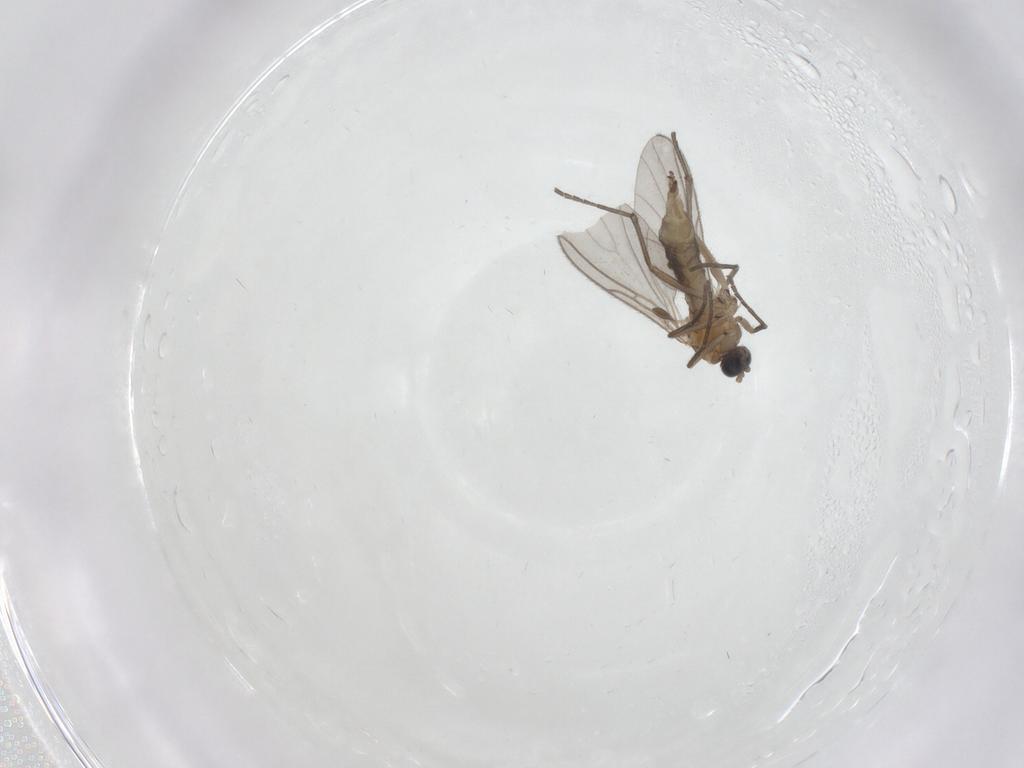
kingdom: Animalia
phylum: Arthropoda
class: Insecta
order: Diptera
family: Sciaridae
